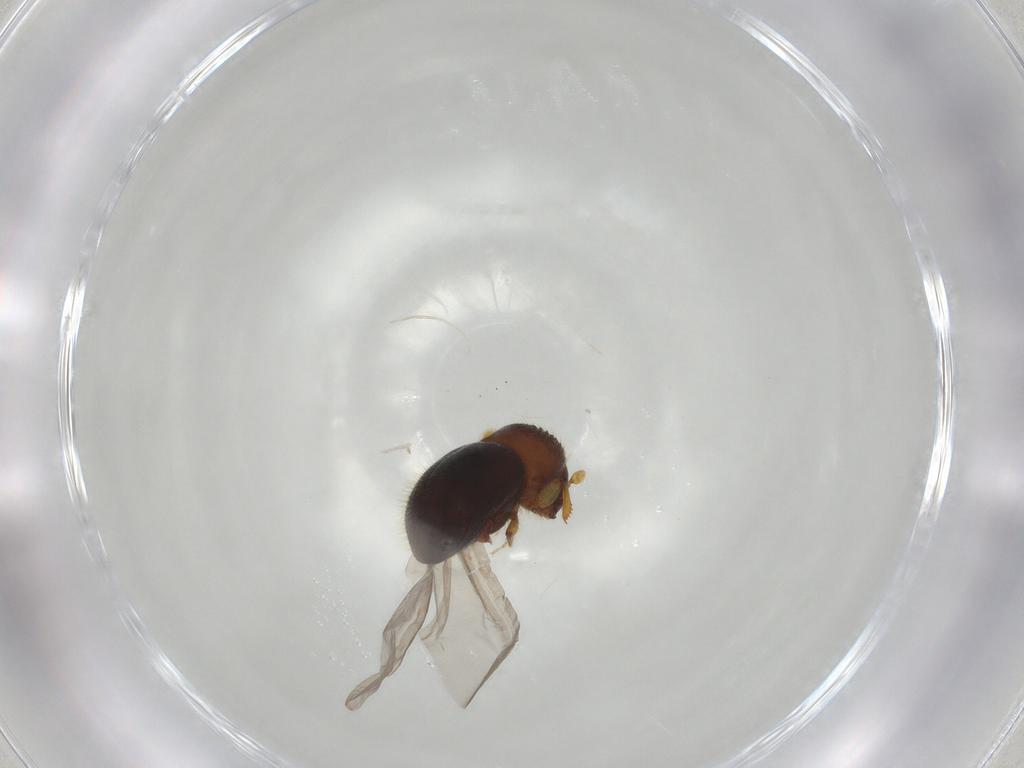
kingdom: Animalia
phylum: Arthropoda
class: Insecta
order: Coleoptera
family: Curculionidae
